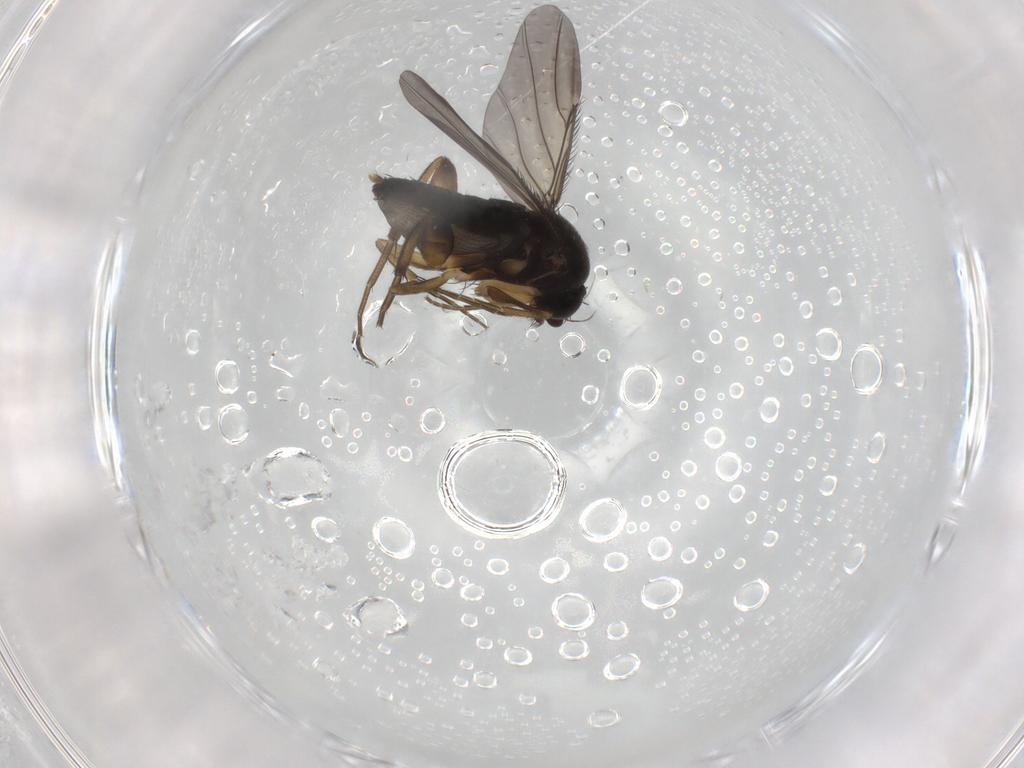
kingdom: Animalia
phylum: Arthropoda
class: Insecta
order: Diptera
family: Phoridae
